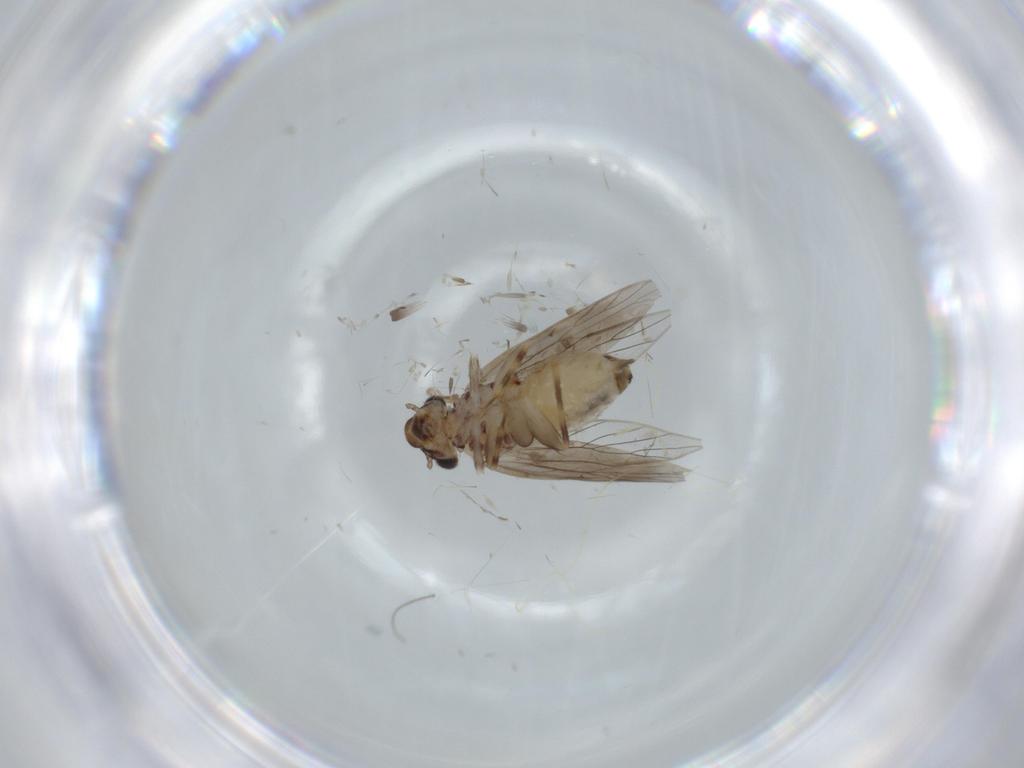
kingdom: Animalia
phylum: Arthropoda
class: Insecta
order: Psocodea
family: Lepidopsocidae
